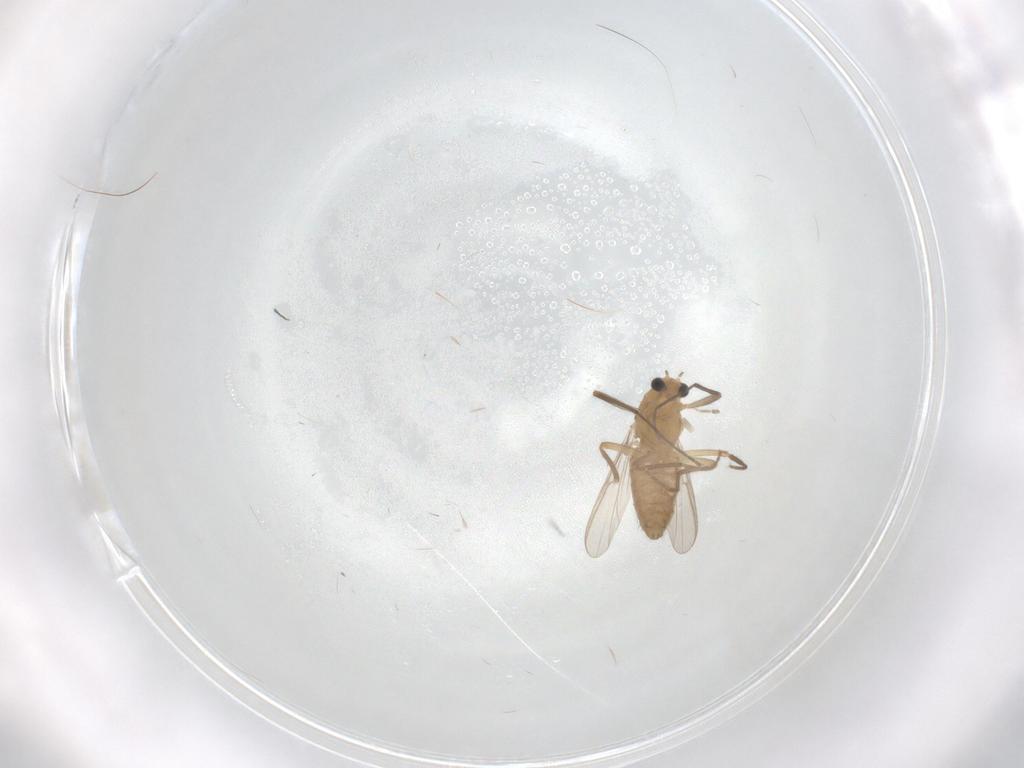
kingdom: Animalia
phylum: Arthropoda
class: Insecta
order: Diptera
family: Chironomidae
